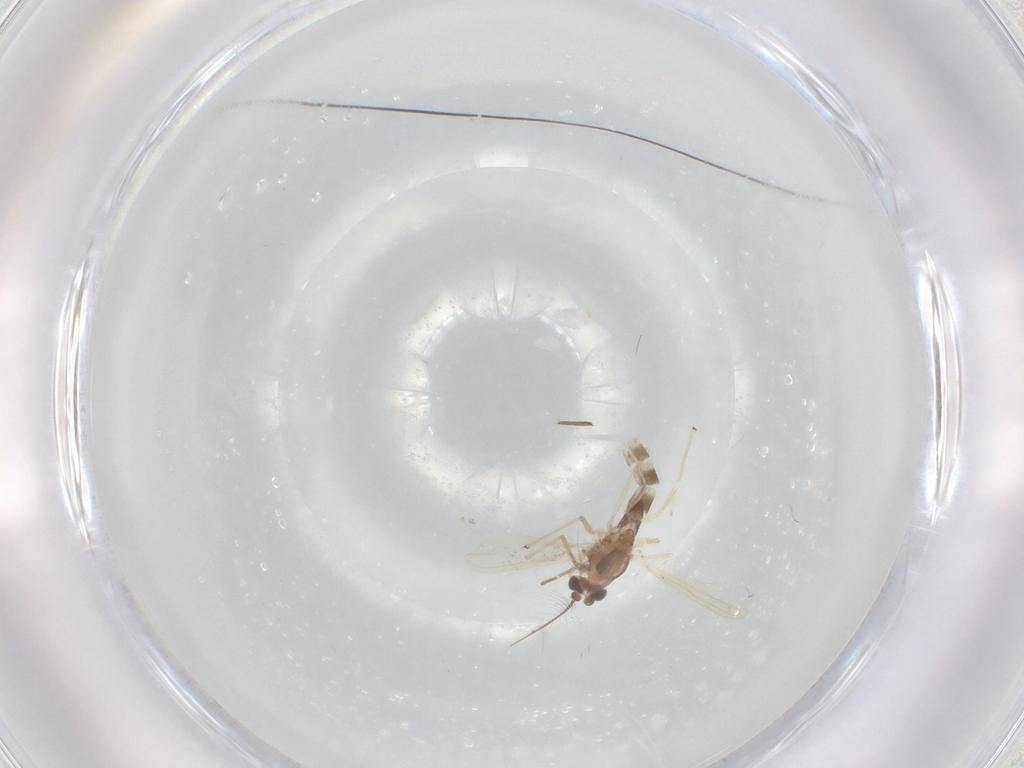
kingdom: Animalia
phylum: Arthropoda
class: Insecta
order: Diptera
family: Chironomidae
